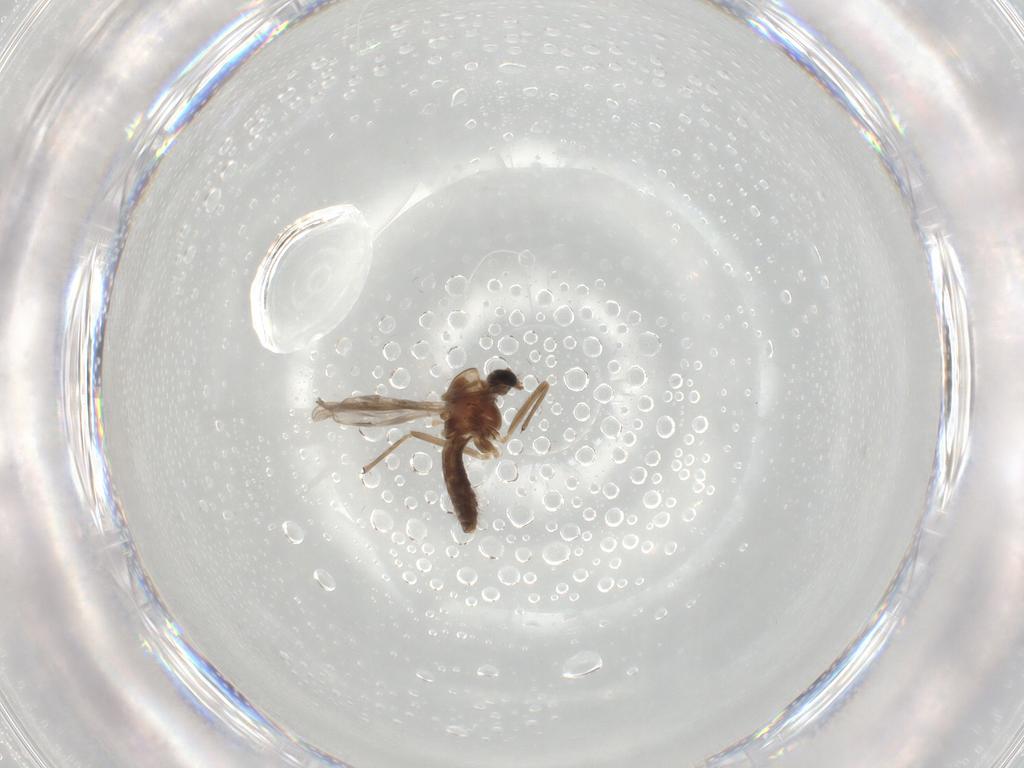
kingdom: Animalia
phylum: Arthropoda
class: Insecta
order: Diptera
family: Chironomidae
